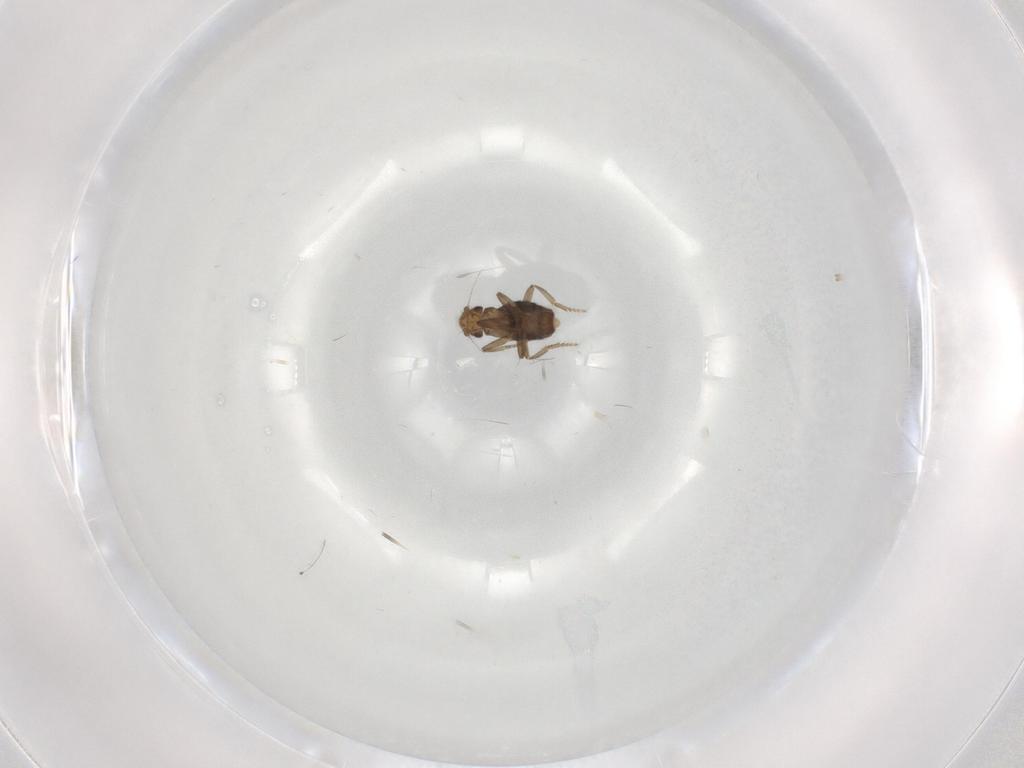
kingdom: Animalia
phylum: Arthropoda
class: Insecta
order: Diptera
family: Phoridae
